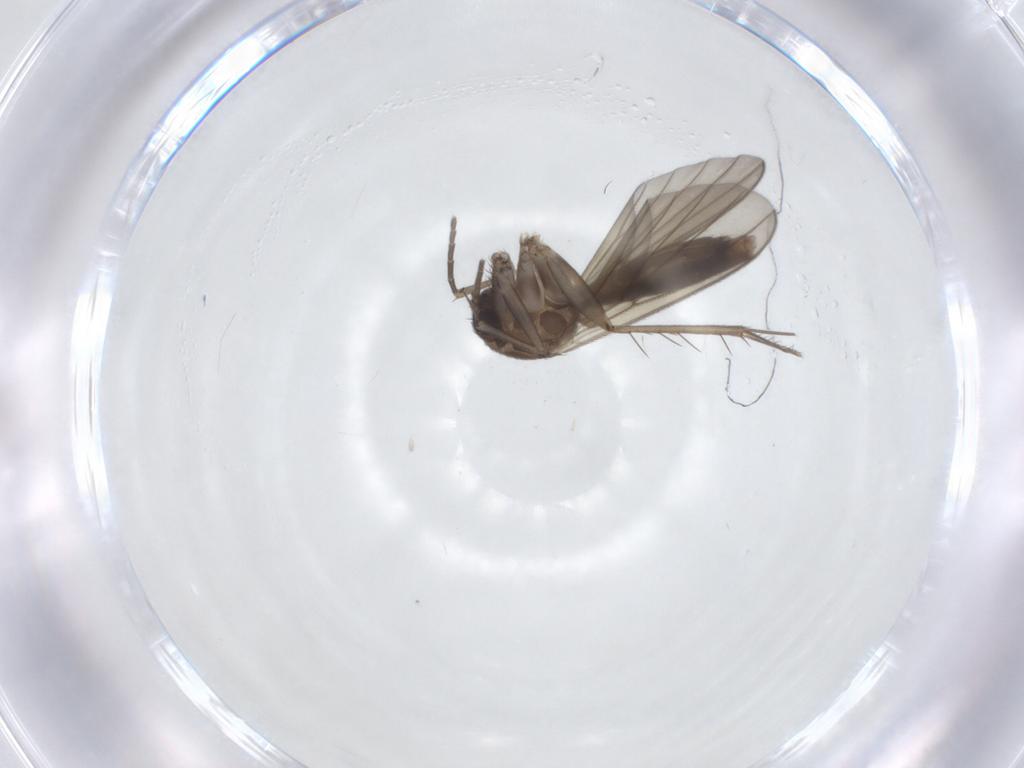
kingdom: Animalia
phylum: Arthropoda
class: Insecta
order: Diptera
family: Mycetophilidae
